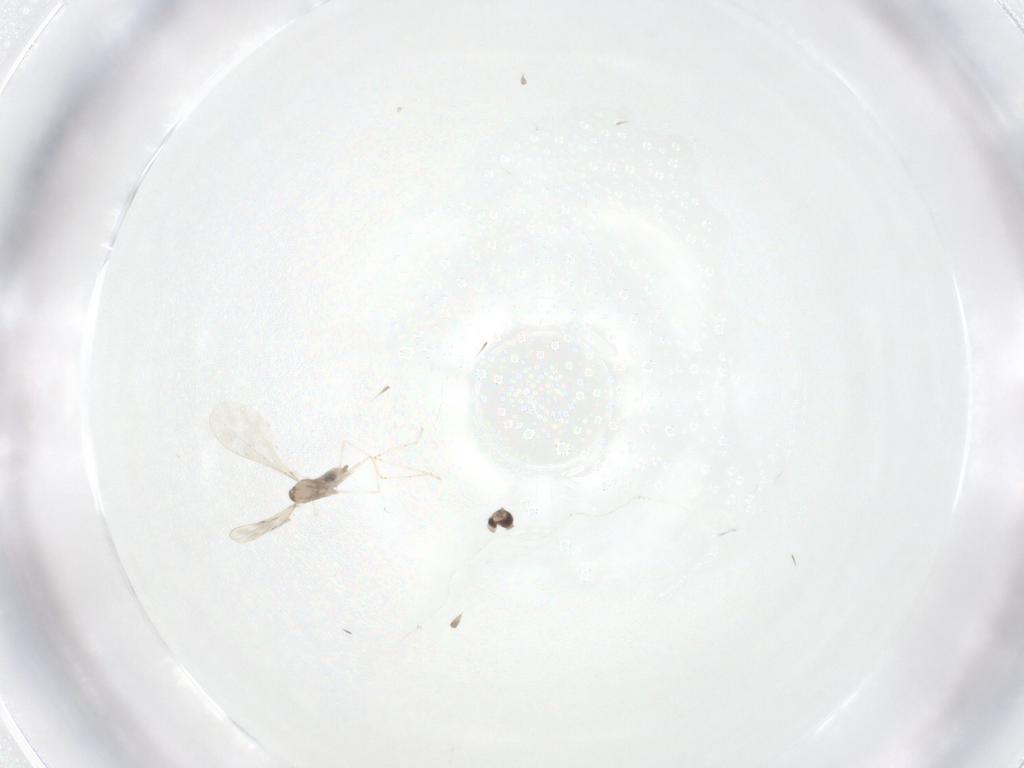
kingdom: Animalia
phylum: Arthropoda
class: Insecta
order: Diptera
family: Cecidomyiidae
